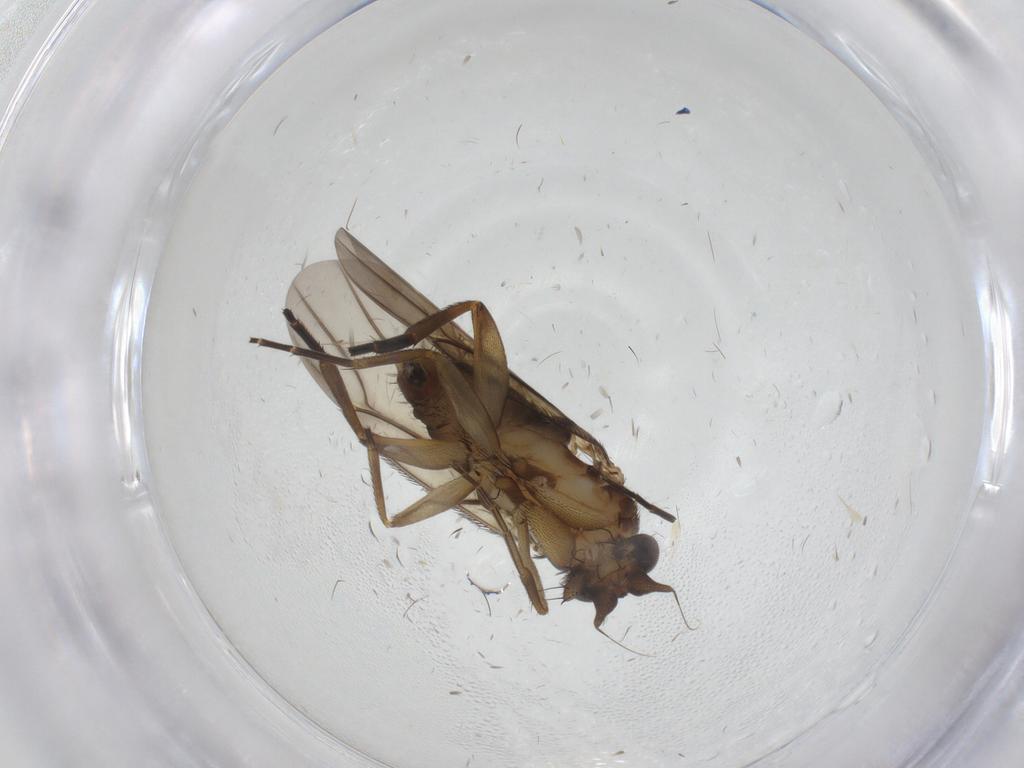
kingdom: Animalia
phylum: Arthropoda
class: Insecta
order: Diptera
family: Phoridae
